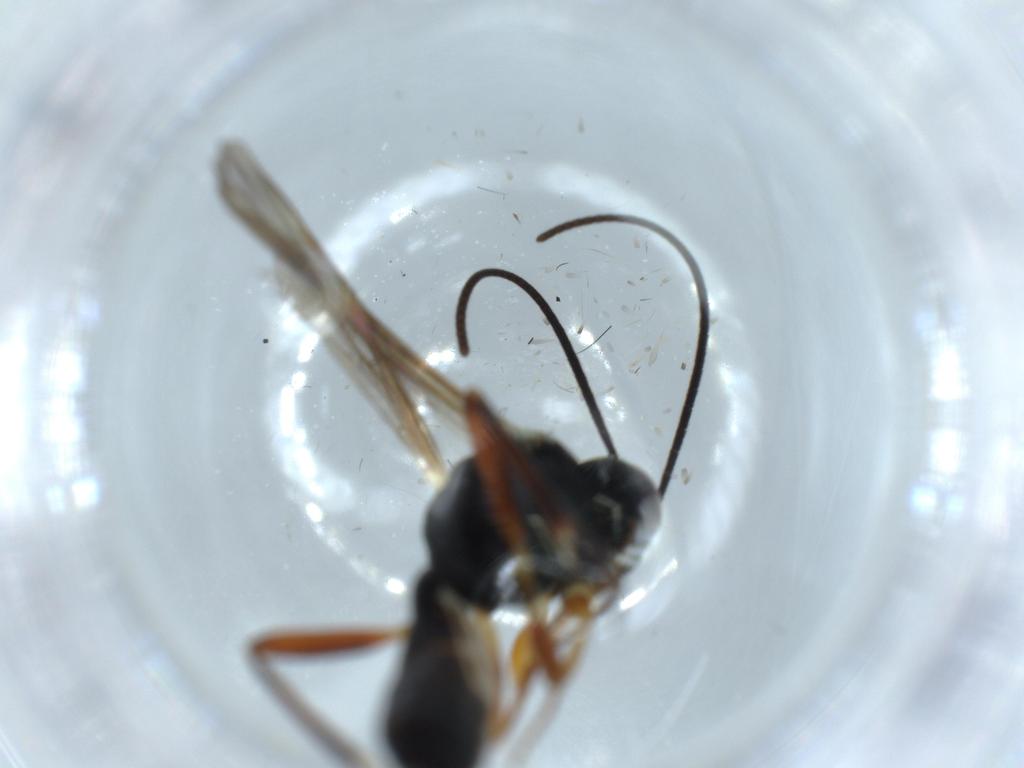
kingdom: Animalia
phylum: Arthropoda
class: Insecta
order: Hymenoptera
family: Ichneumonidae
